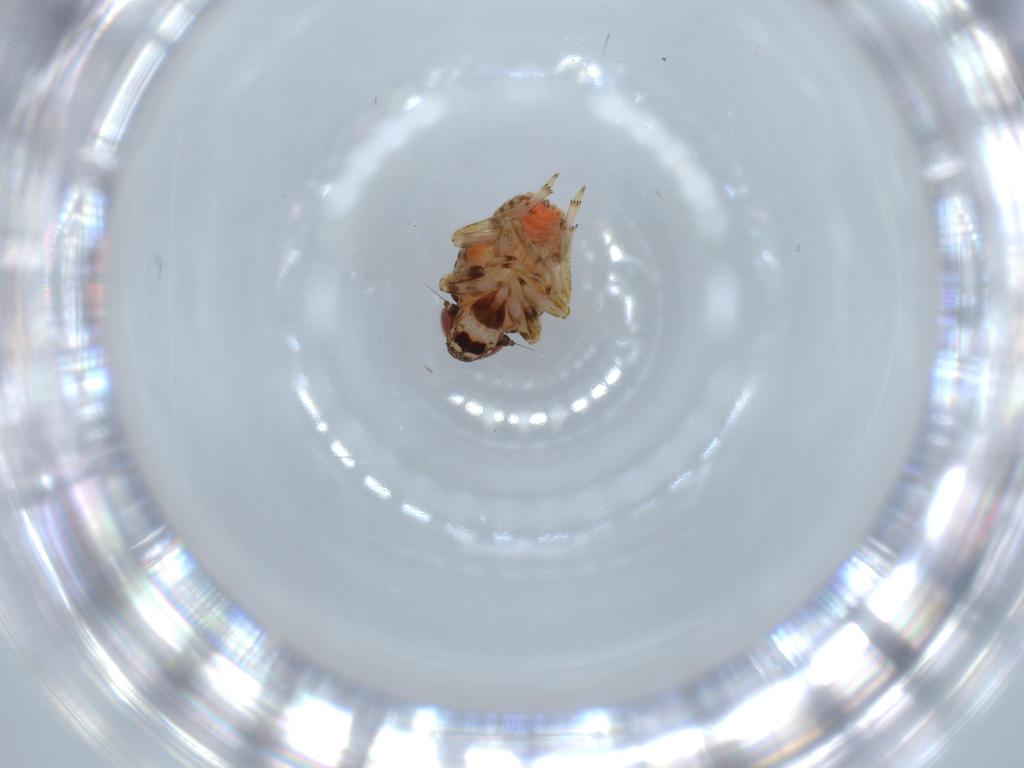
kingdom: Animalia
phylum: Arthropoda
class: Insecta
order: Hemiptera
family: Issidae
